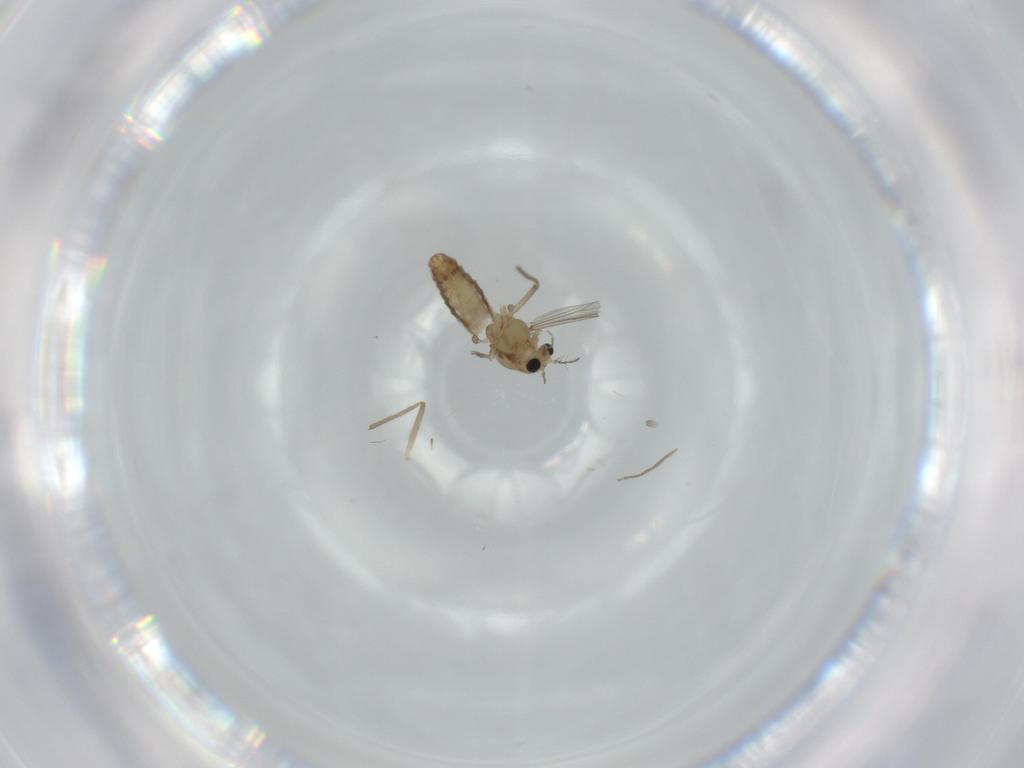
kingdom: Animalia
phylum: Arthropoda
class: Insecta
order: Diptera
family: Chironomidae
